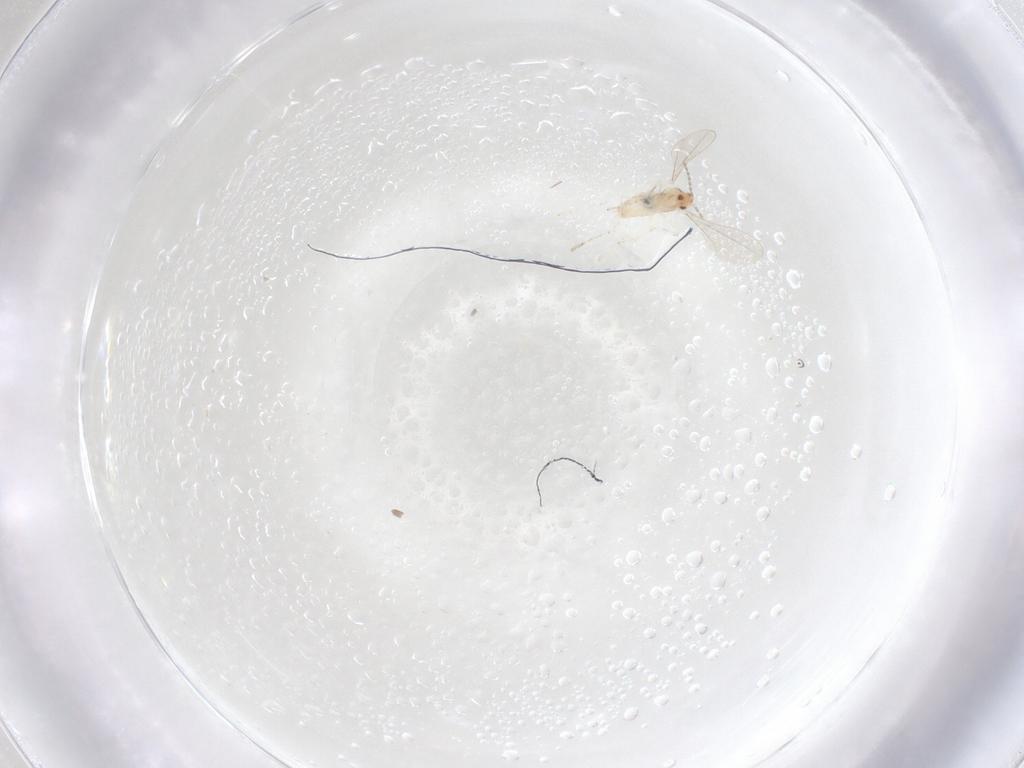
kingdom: Animalia
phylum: Arthropoda
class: Insecta
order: Diptera
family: Cecidomyiidae
